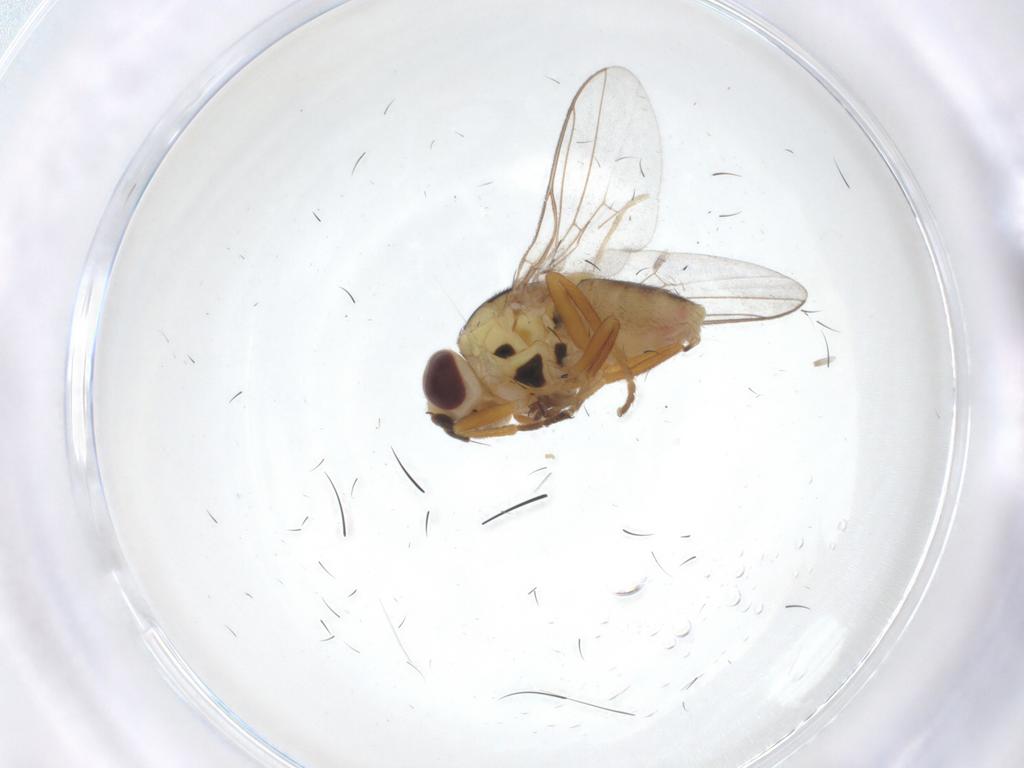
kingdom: Animalia
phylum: Arthropoda
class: Insecta
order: Diptera
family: Chloropidae
